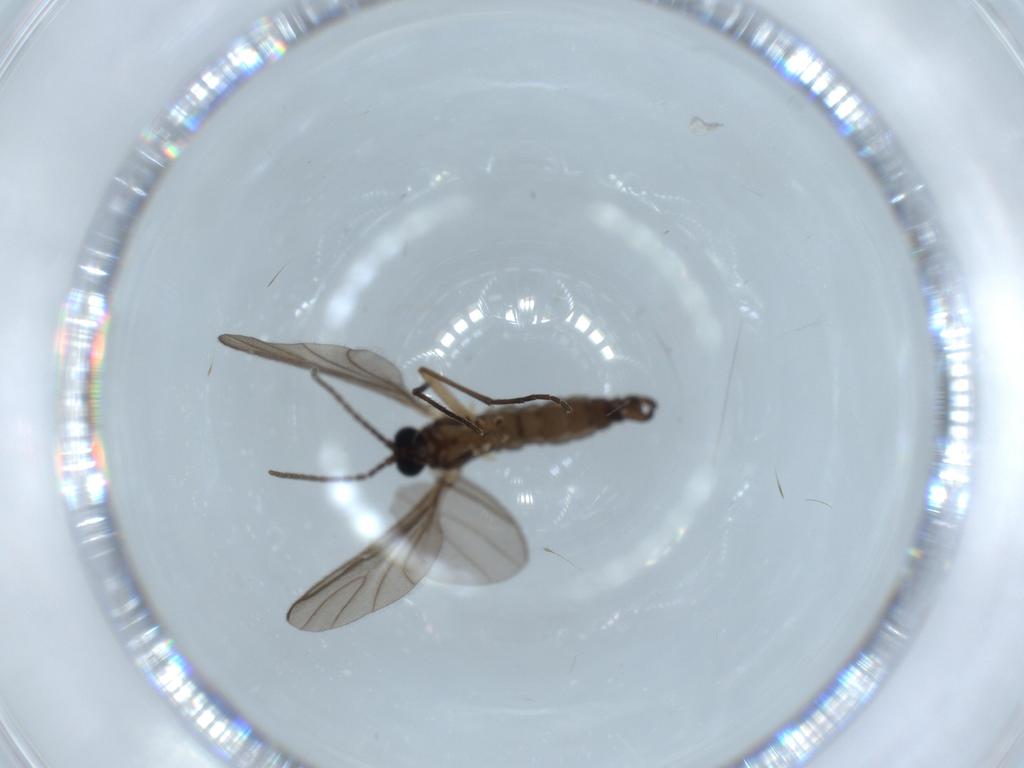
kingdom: Animalia
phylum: Arthropoda
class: Insecta
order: Diptera
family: Sciaridae
